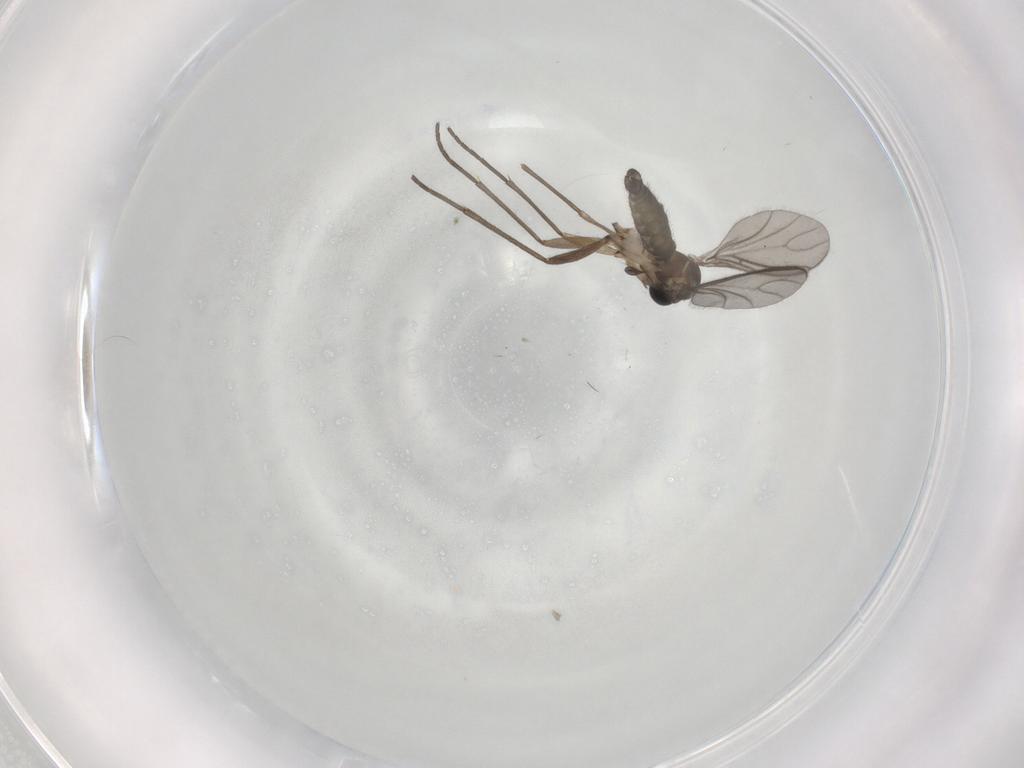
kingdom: Animalia
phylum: Arthropoda
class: Insecta
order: Diptera
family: Sciaridae
